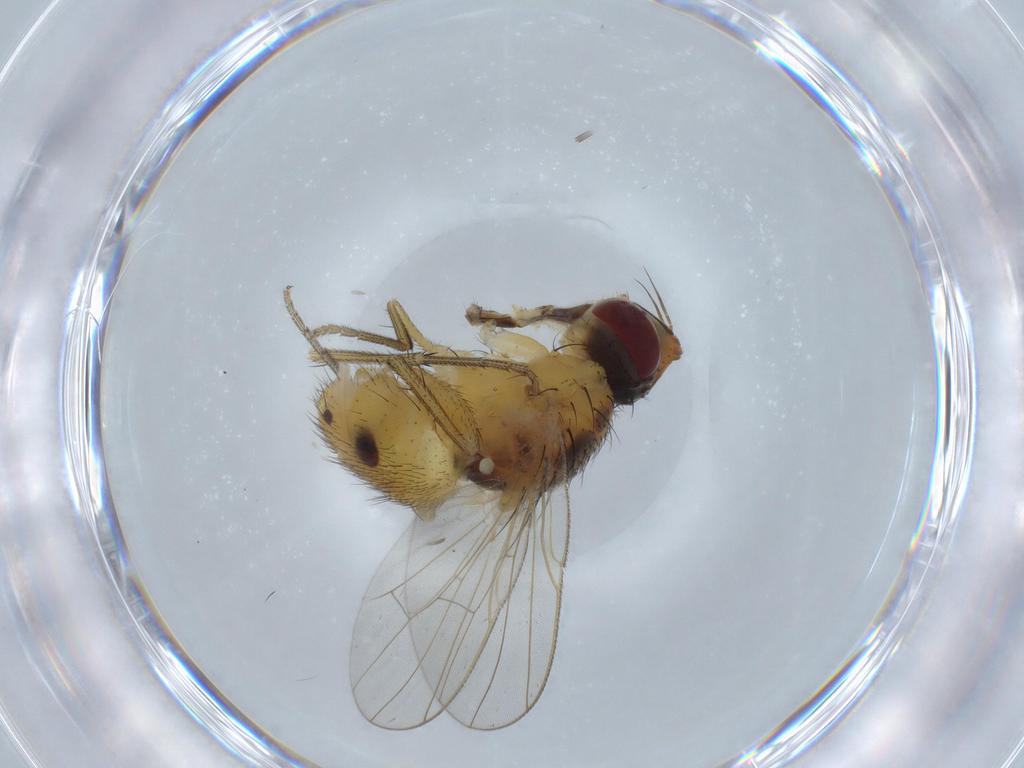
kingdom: Animalia
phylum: Arthropoda
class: Insecta
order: Diptera
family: Muscidae
